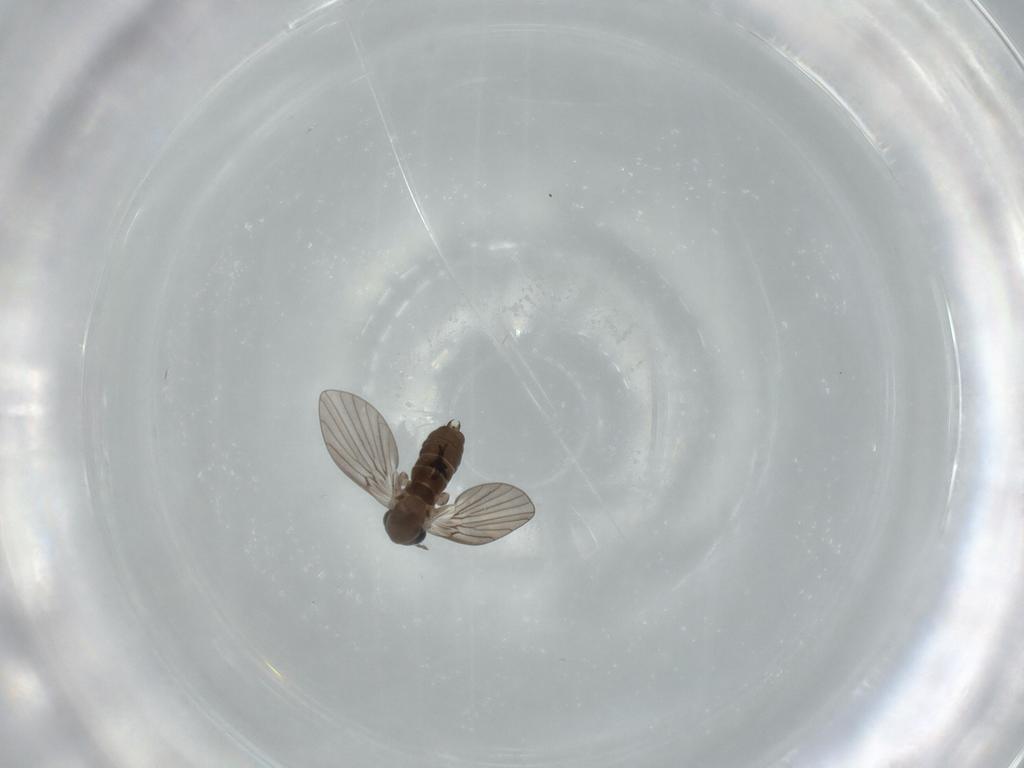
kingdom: Animalia
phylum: Arthropoda
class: Insecta
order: Diptera
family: Psychodidae
